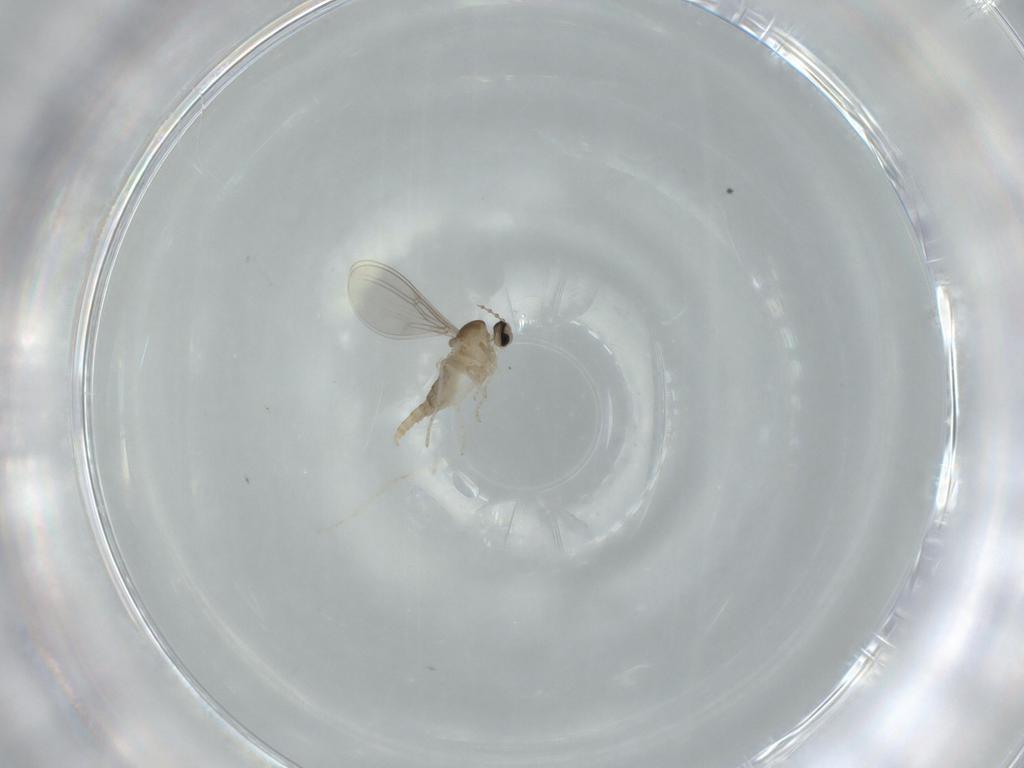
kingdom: Animalia
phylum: Arthropoda
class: Insecta
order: Diptera
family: Cecidomyiidae
